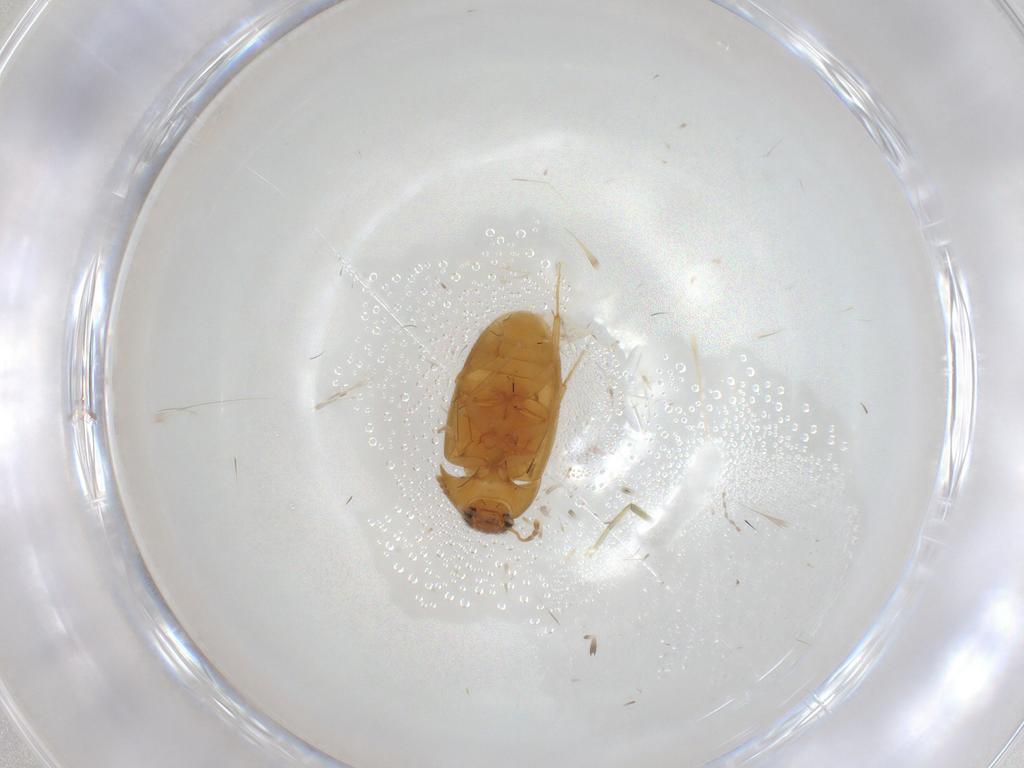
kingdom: Animalia
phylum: Arthropoda
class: Insecta
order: Coleoptera
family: Mycetophagidae
